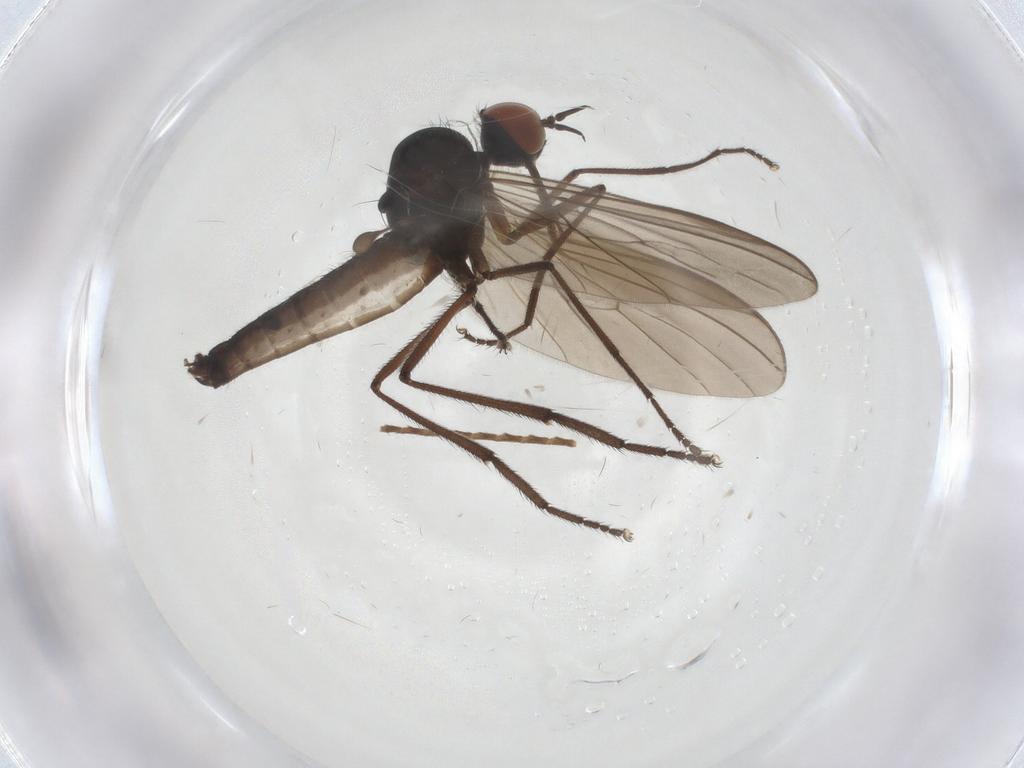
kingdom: Animalia
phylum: Arthropoda
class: Insecta
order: Diptera
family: Empididae
